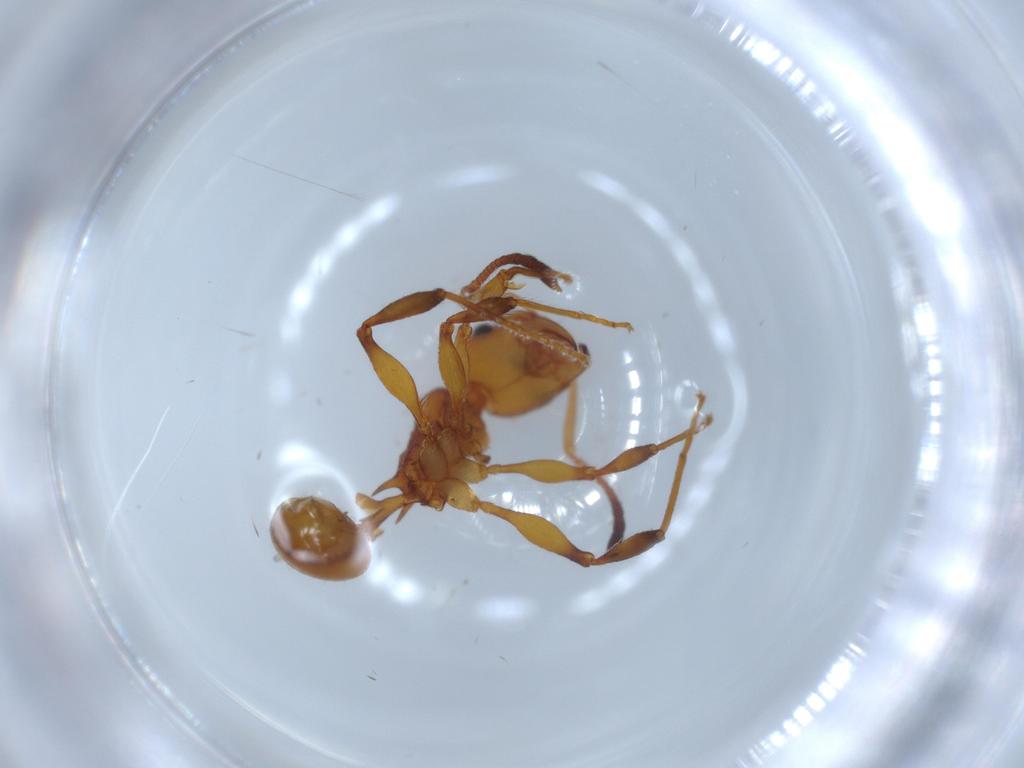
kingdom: Animalia
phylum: Arthropoda
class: Insecta
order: Hymenoptera
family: Formicidae
